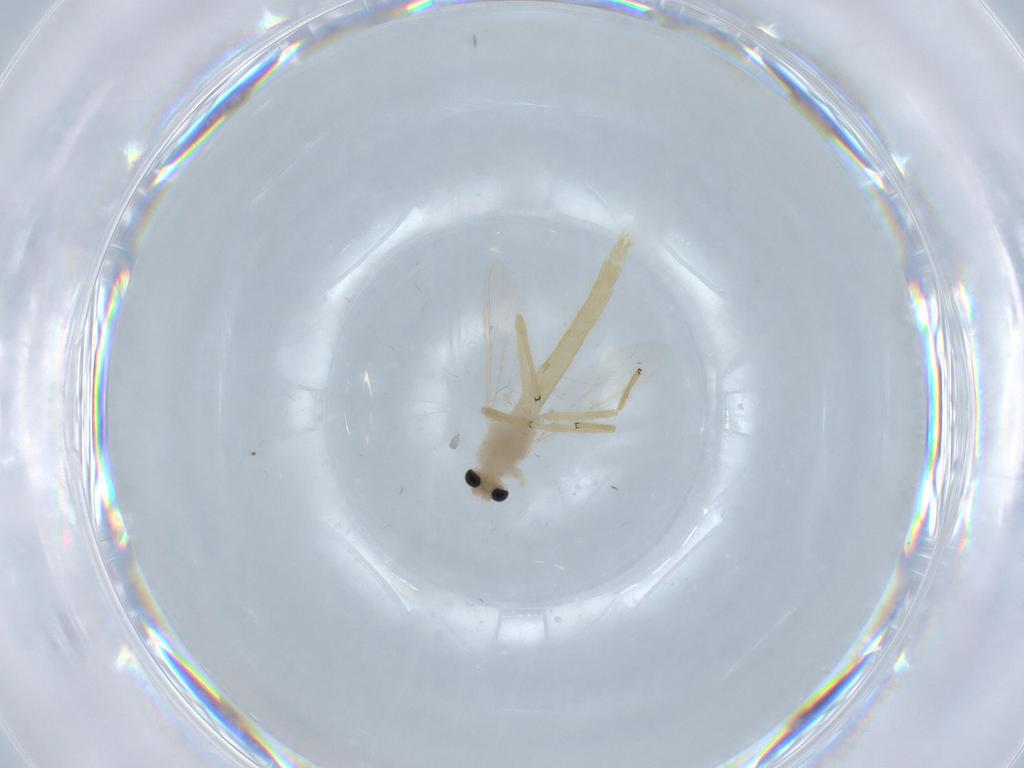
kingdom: Animalia
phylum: Arthropoda
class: Insecta
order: Diptera
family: Chironomidae
